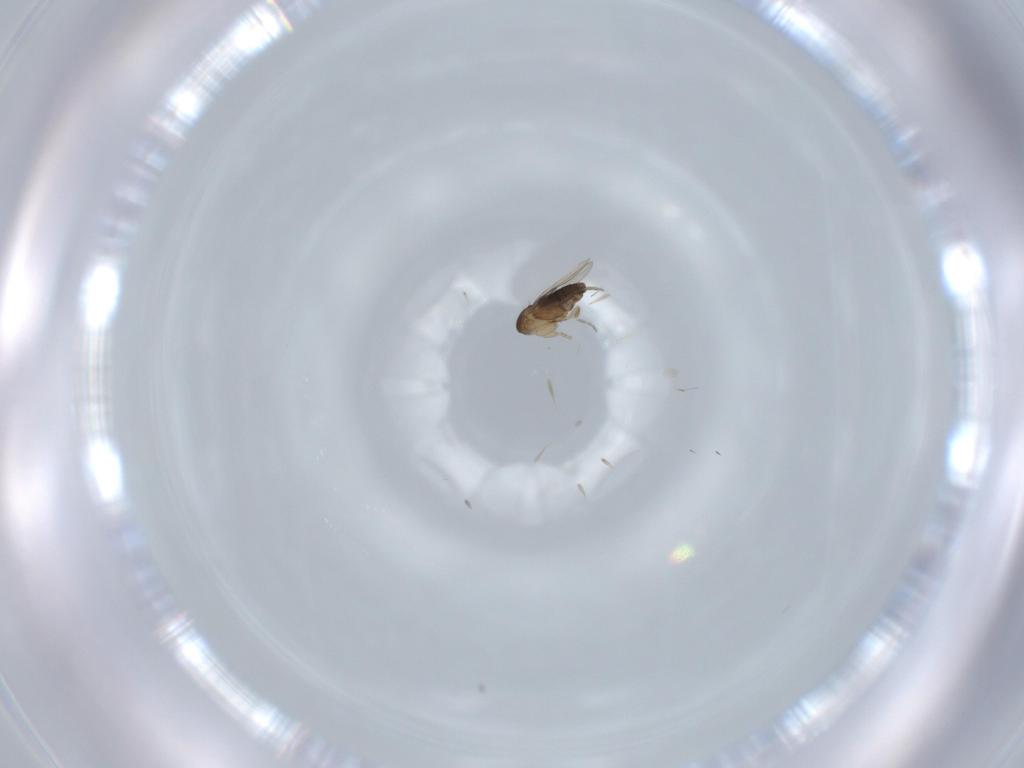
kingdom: Animalia
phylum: Arthropoda
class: Insecta
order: Diptera
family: Phoridae
